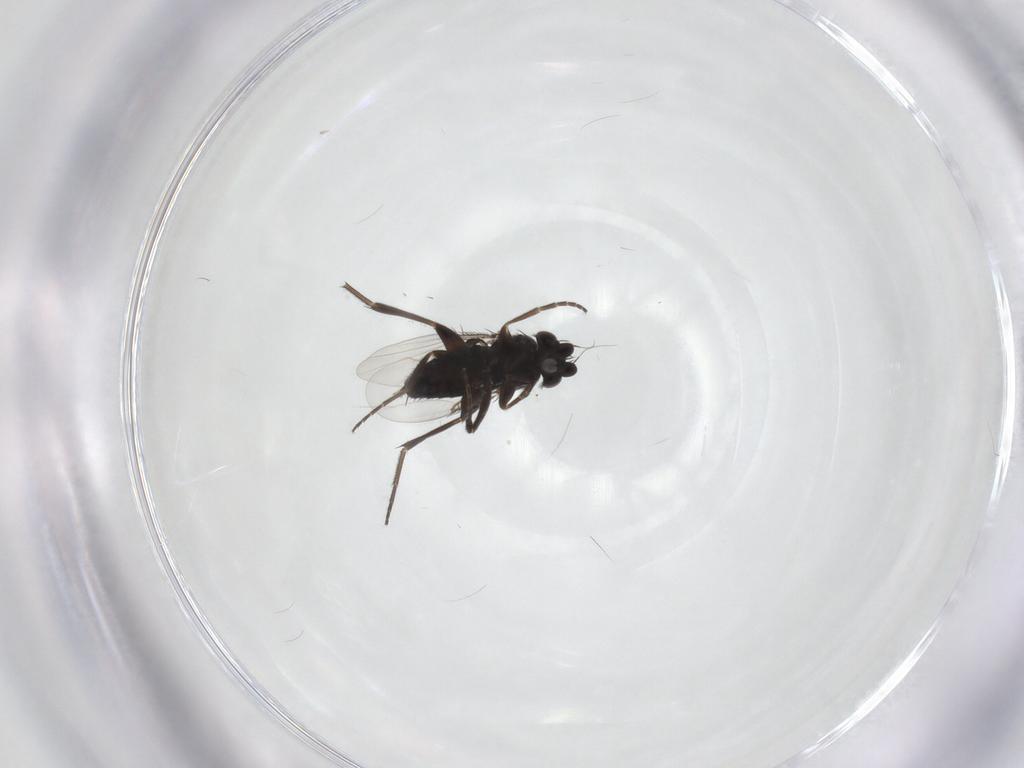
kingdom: Animalia
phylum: Arthropoda
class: Insecta
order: Diptera
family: Phoridae
